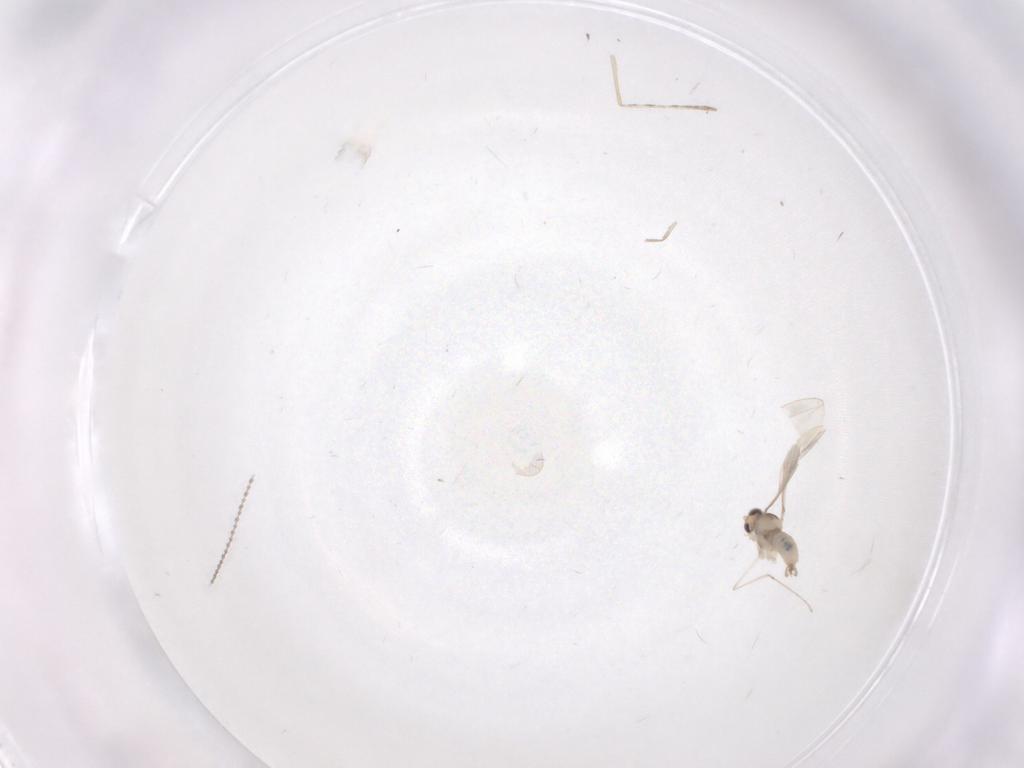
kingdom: Animalia
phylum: Arthropoda
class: Insecta
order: Diptera
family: Cecidomyiidae
